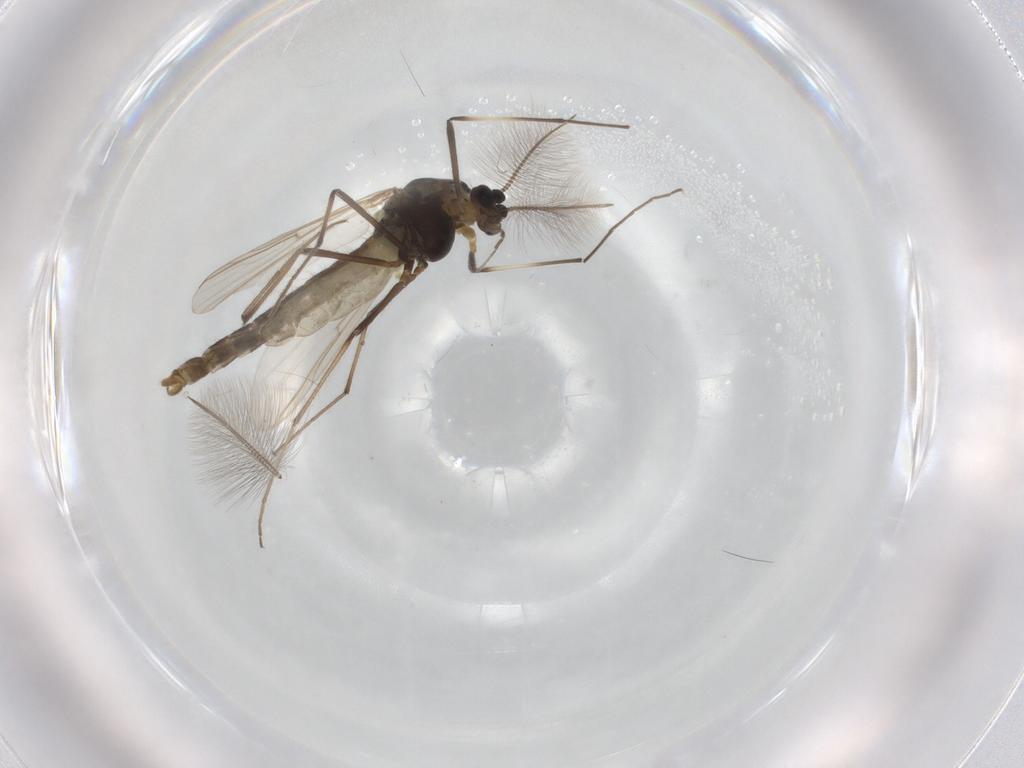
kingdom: Animalia
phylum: Arthropoda
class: Insecta
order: Diptera
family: Chironomidae
